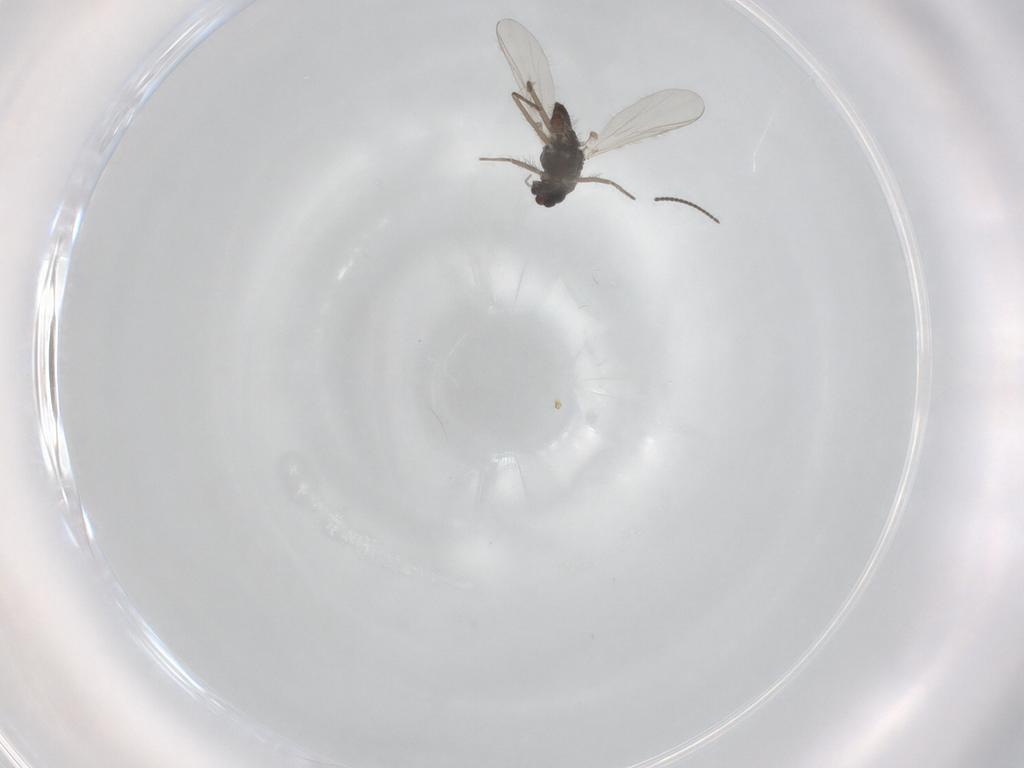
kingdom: Animalia
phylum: Arthropoda
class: Insecta
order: Diptera
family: Chironomidae
